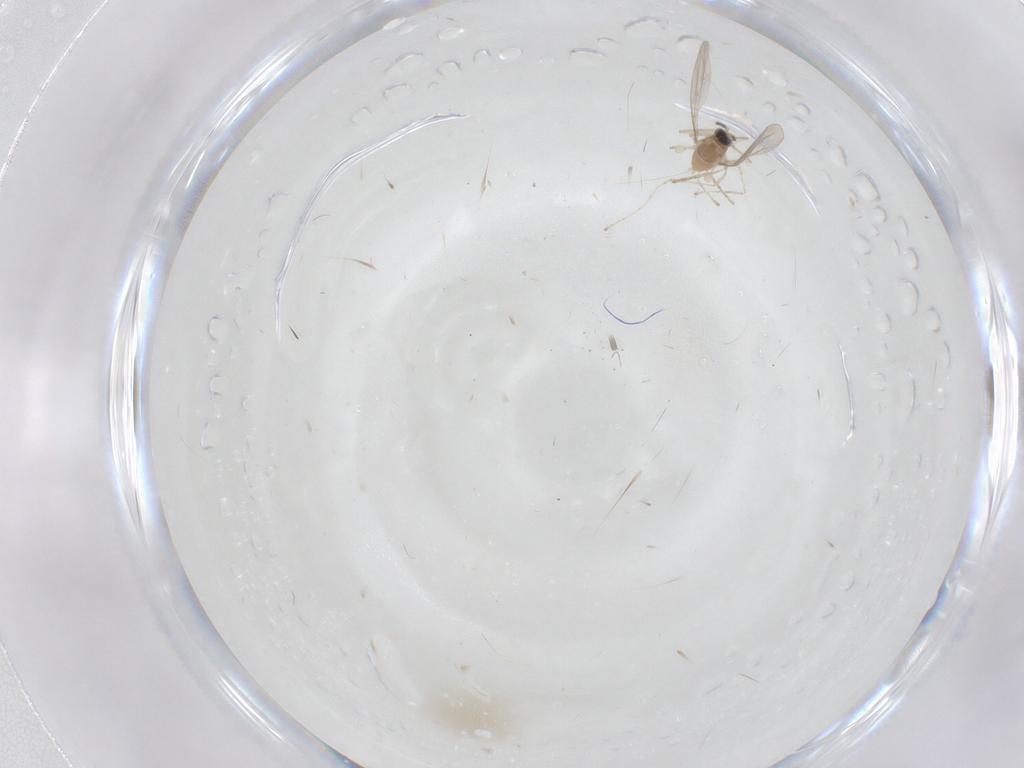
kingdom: Animalia
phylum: Arthropoda
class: Insecta
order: Diptera
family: Cecidomyiidae
